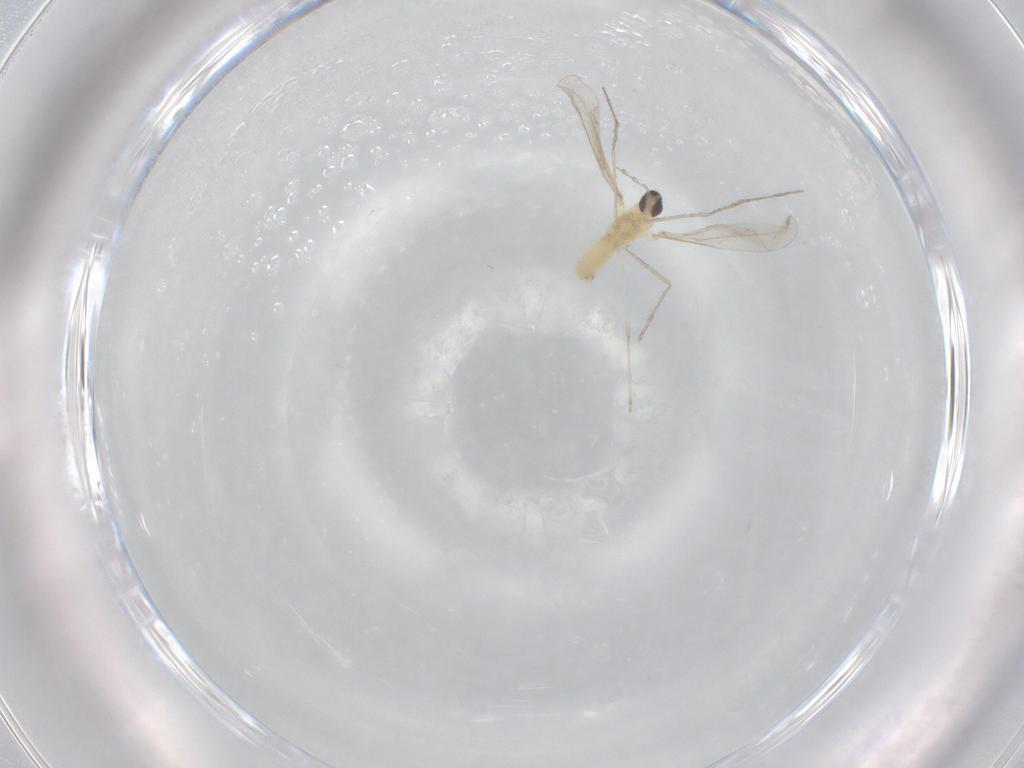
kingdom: Animalia
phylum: Arthropoda
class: Insecta
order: Diptera
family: Cecidomyiidae
